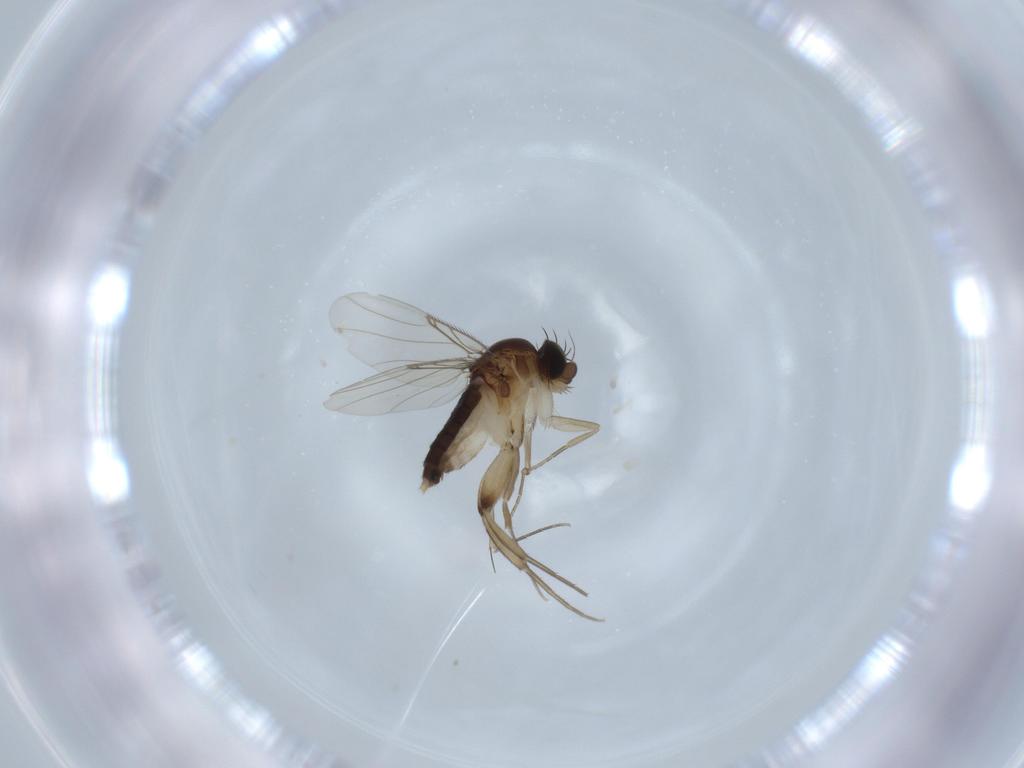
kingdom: Animalia
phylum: Arthropoda
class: Insecta
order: Diptera
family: Phoridae
